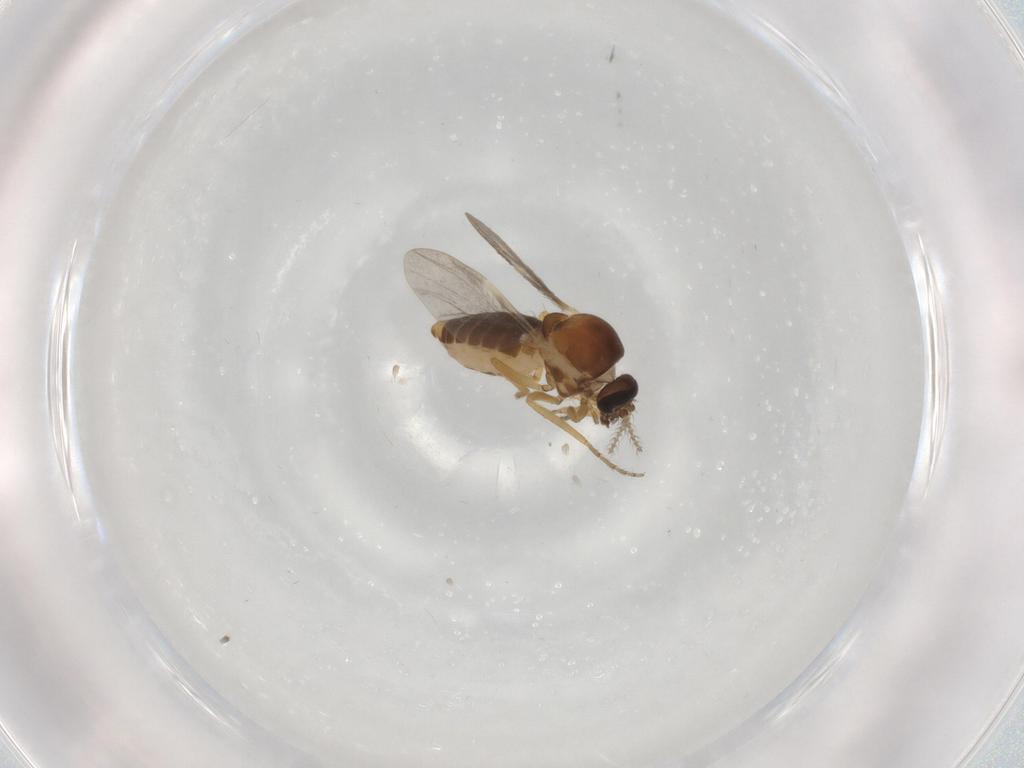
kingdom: Animalia
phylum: Arthropoda
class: Insecta
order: Diptera
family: Ceratopogonidae
